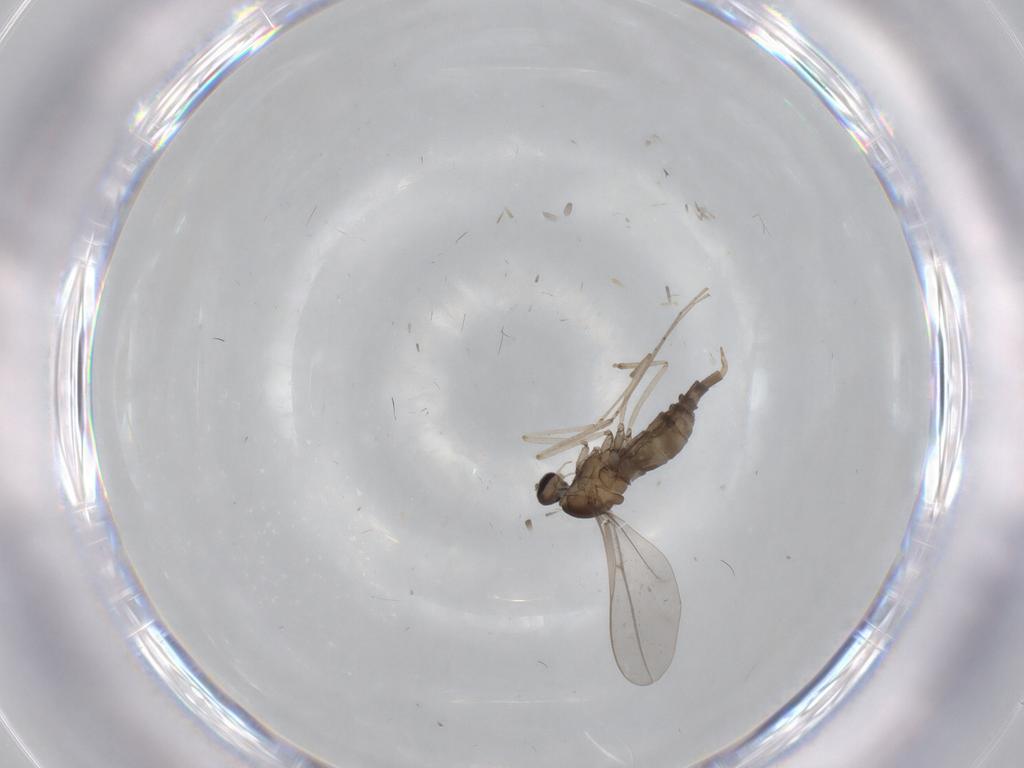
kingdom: Animalia
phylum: Arthropoda
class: Insecta
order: Diptera
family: Cecidomyiidae
